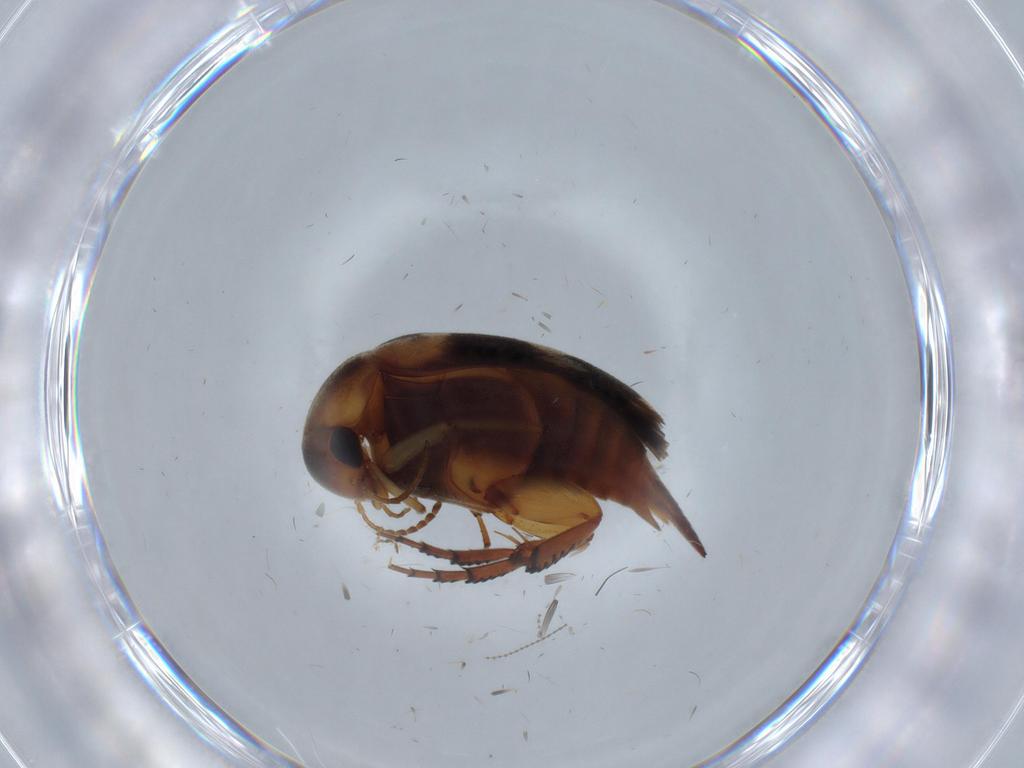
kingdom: Animalia
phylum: Arthropoda
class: Insecta
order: Coleoptera
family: Mordellidae
